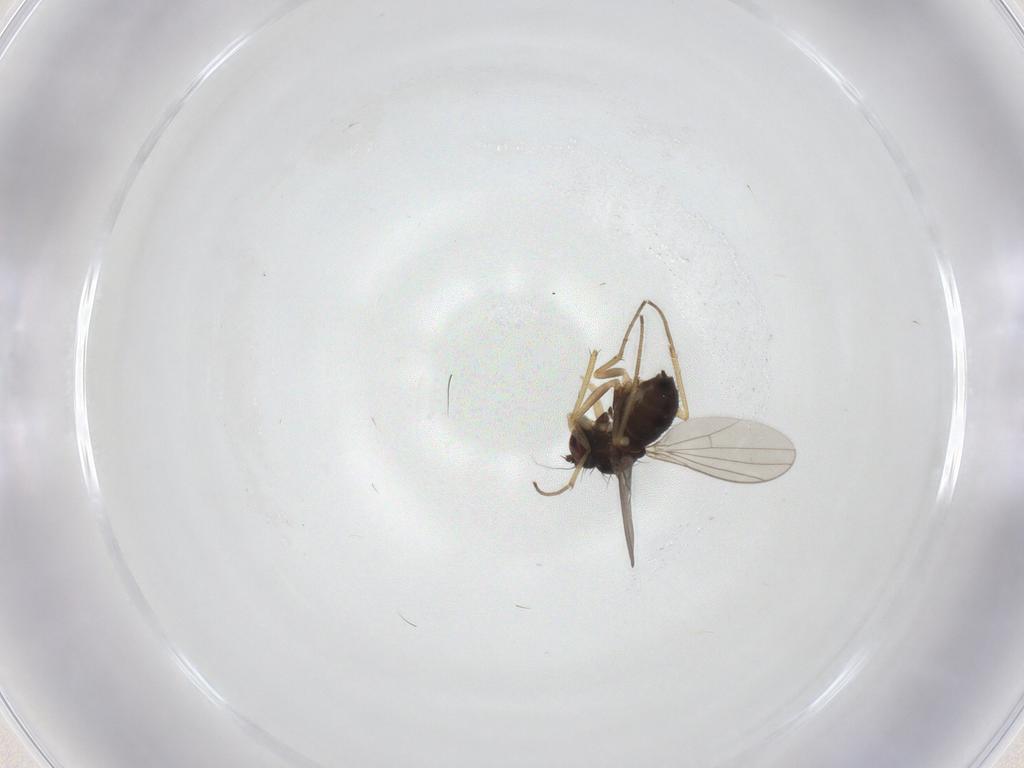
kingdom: Animalia
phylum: Arthropoda
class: Insecta
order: Diptera
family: Dolichopodidae
